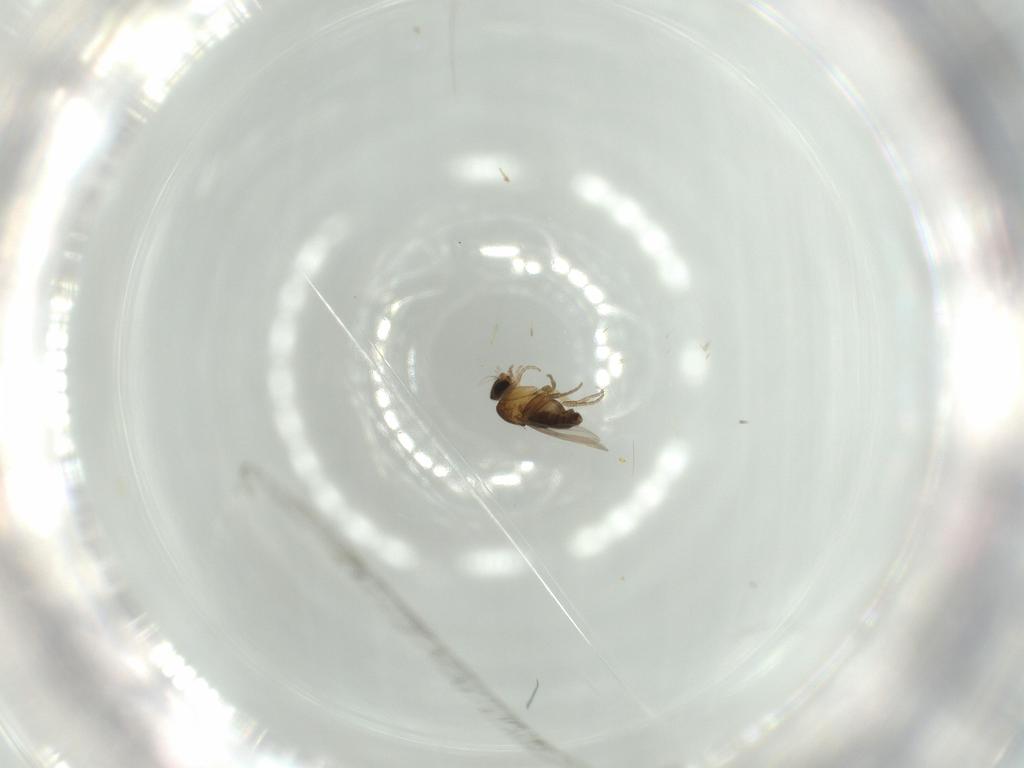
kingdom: Animalia
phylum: Arthropoda
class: Insecta
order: Diptera
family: Phoridae
